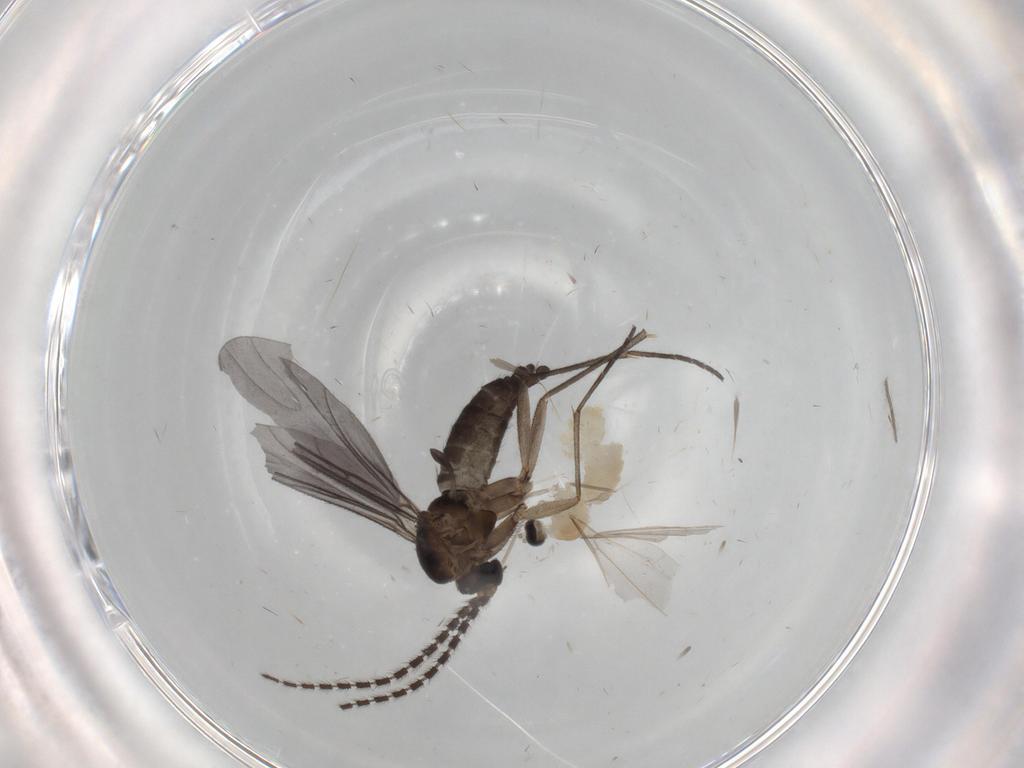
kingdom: Animalia
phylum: Arthropoda
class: Insecta
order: Diptera
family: Cecidomyiidae
